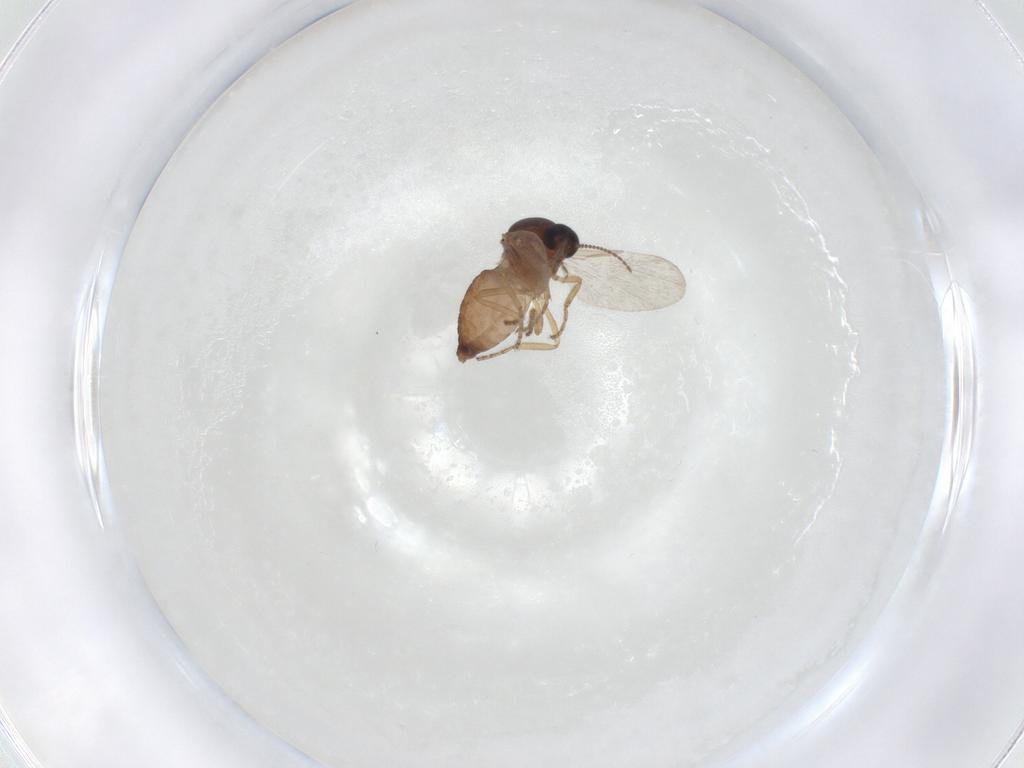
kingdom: Animalia
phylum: Arthropoda
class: Insecta
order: Diptera
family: Ceratopogonidae
